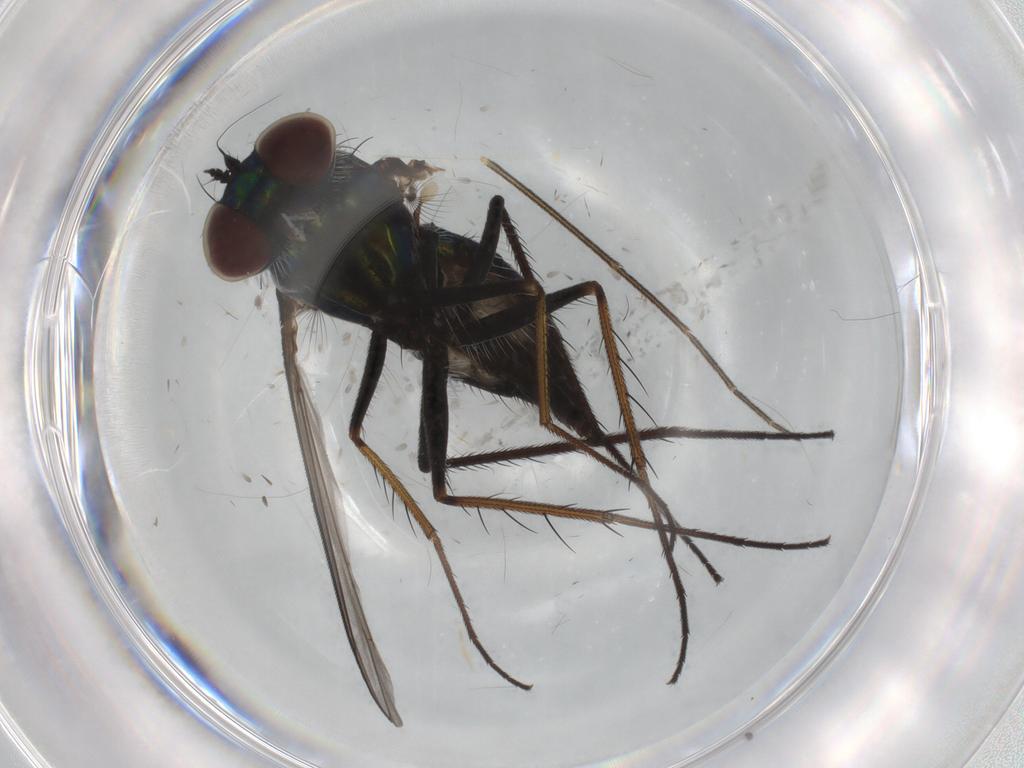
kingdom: Animalia
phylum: Arthropoda
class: Insecta
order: Diptera
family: Dolichopodidae
